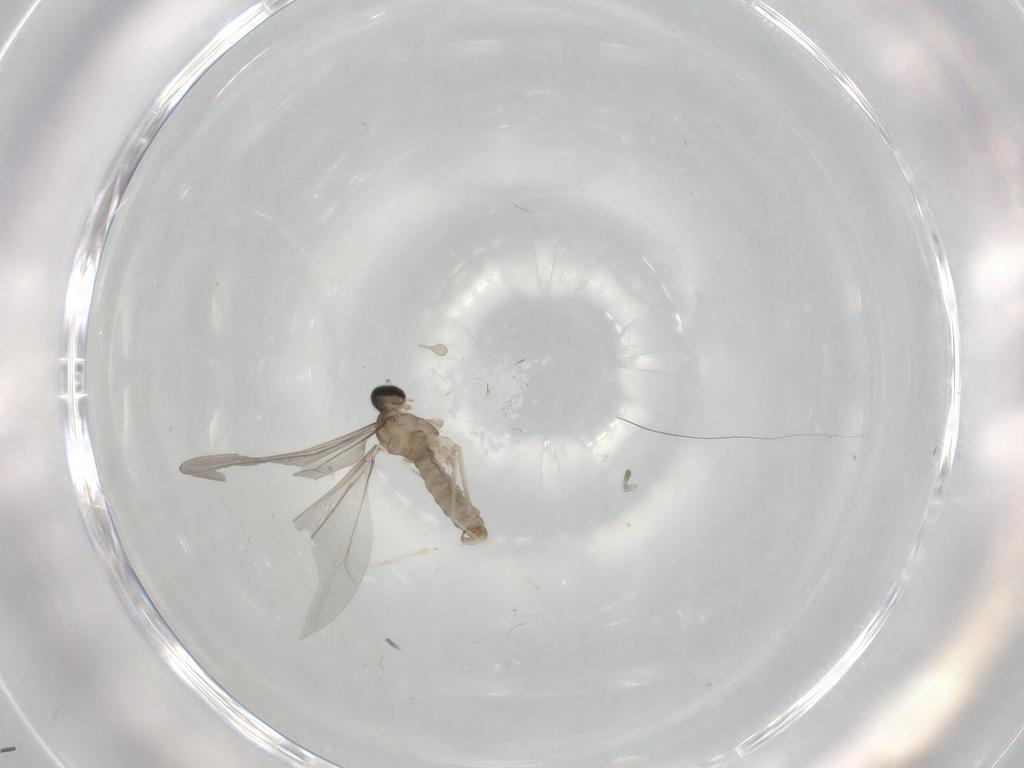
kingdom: Animalia
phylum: Arthropoda
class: Insecta
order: Diptera
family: Cecidomyiidae
